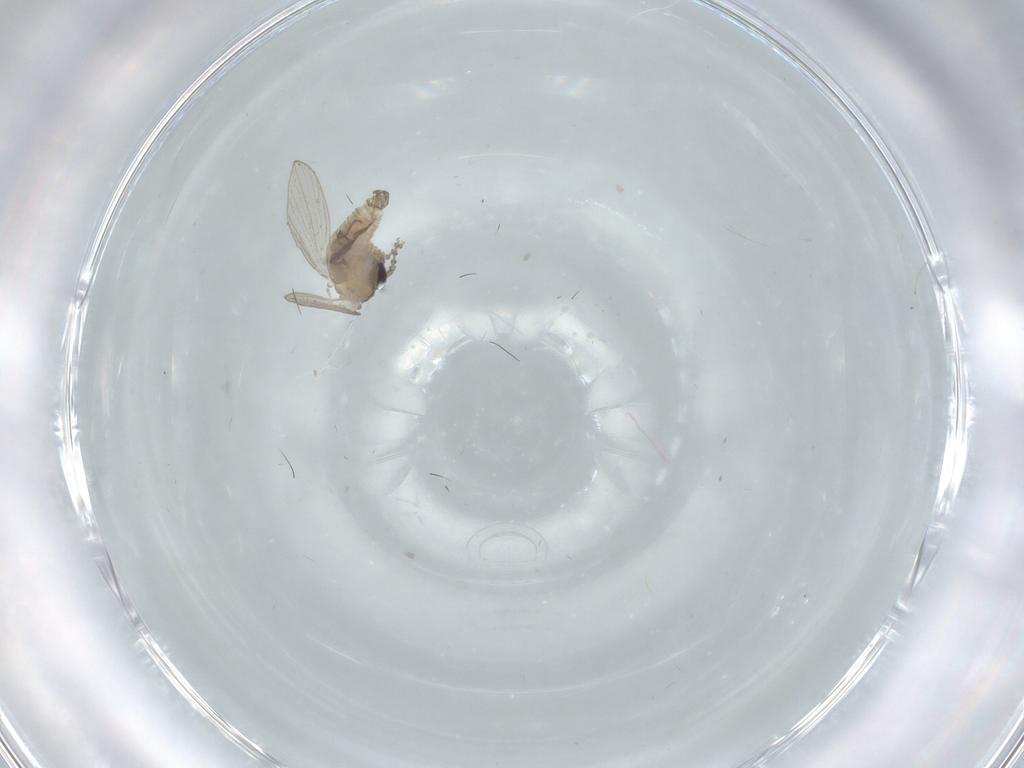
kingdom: Animalia
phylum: Arthropoda
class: Insecta
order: Diptera
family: Psychodidae
